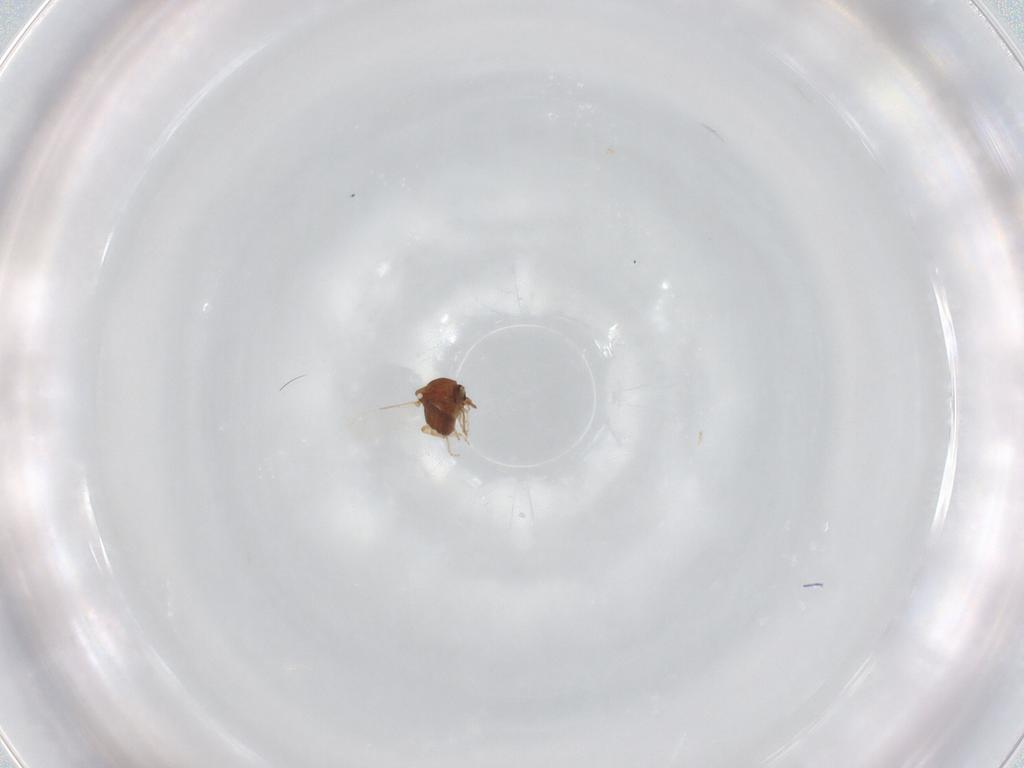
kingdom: Animalia
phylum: Arthropoda
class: Insecta
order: Diptera
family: Ceratopogonidae
